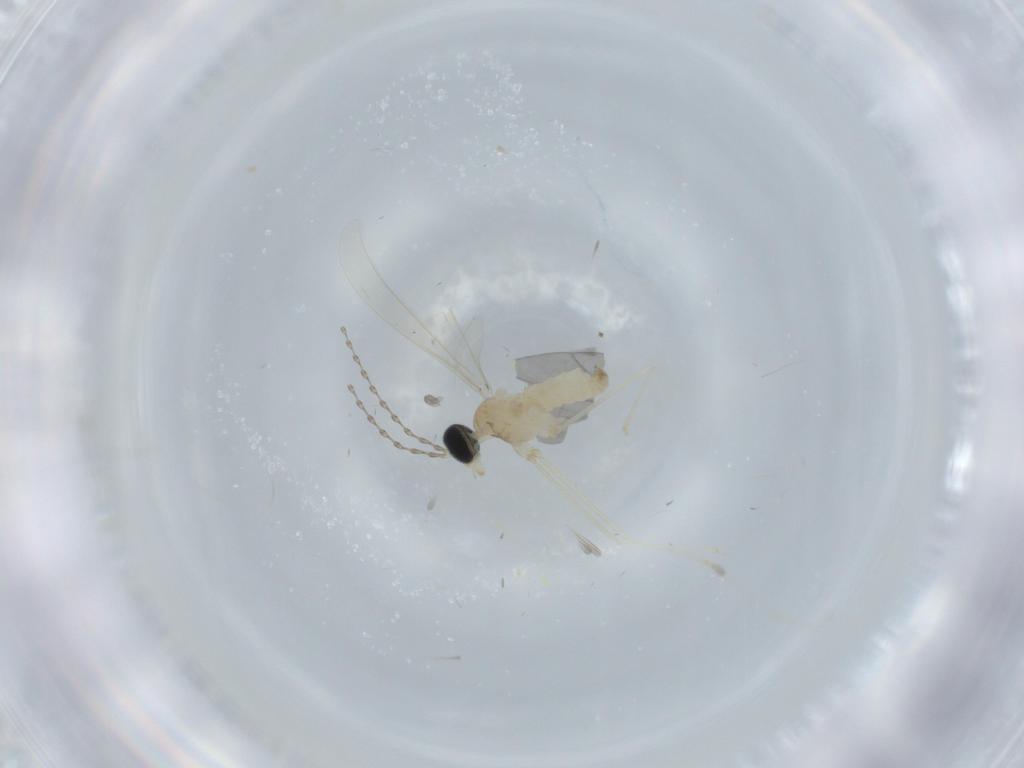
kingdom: Animalia
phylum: Arthropoda
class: Insecta
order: Diptera
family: Cecidomyiidae
